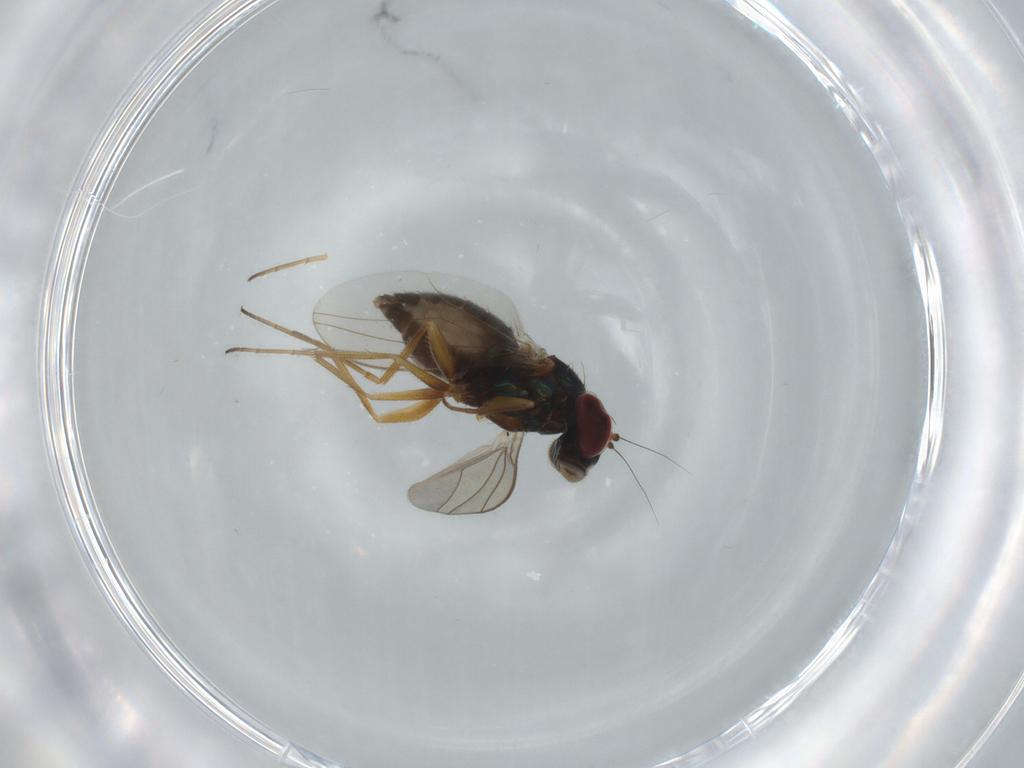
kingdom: Animalia
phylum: Arthropoda
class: Insecta
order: Diptera
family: Dolichopodidae
